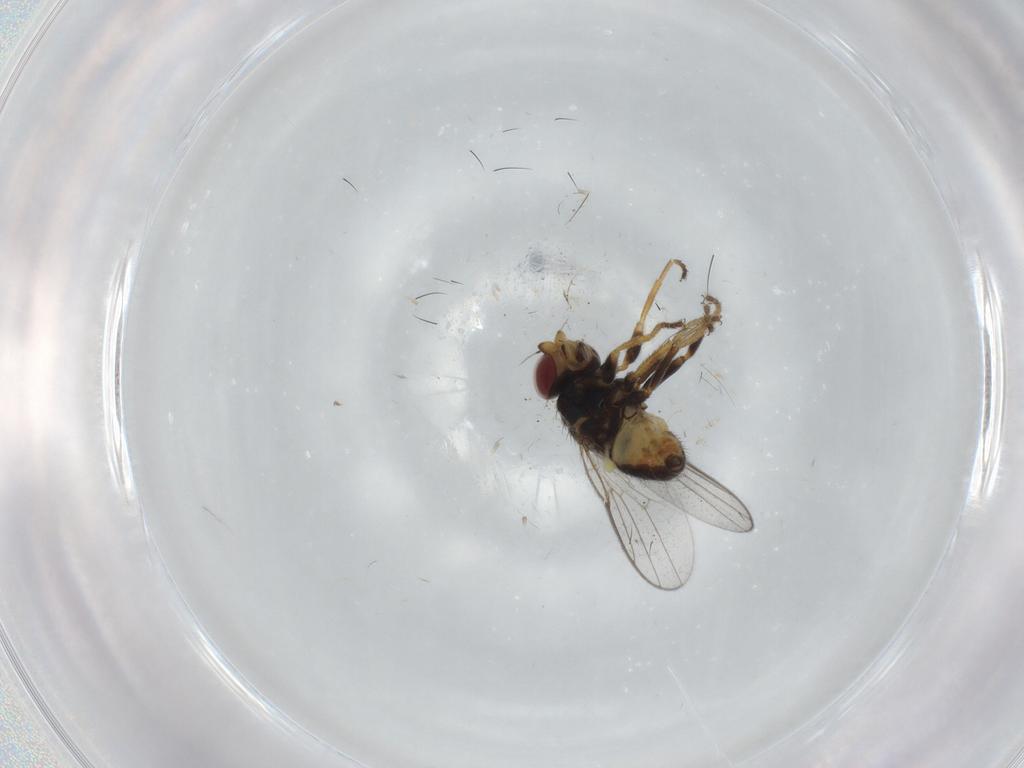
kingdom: Animalia
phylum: Arthropoda
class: Insecta
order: Diptera
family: Chloropidae
